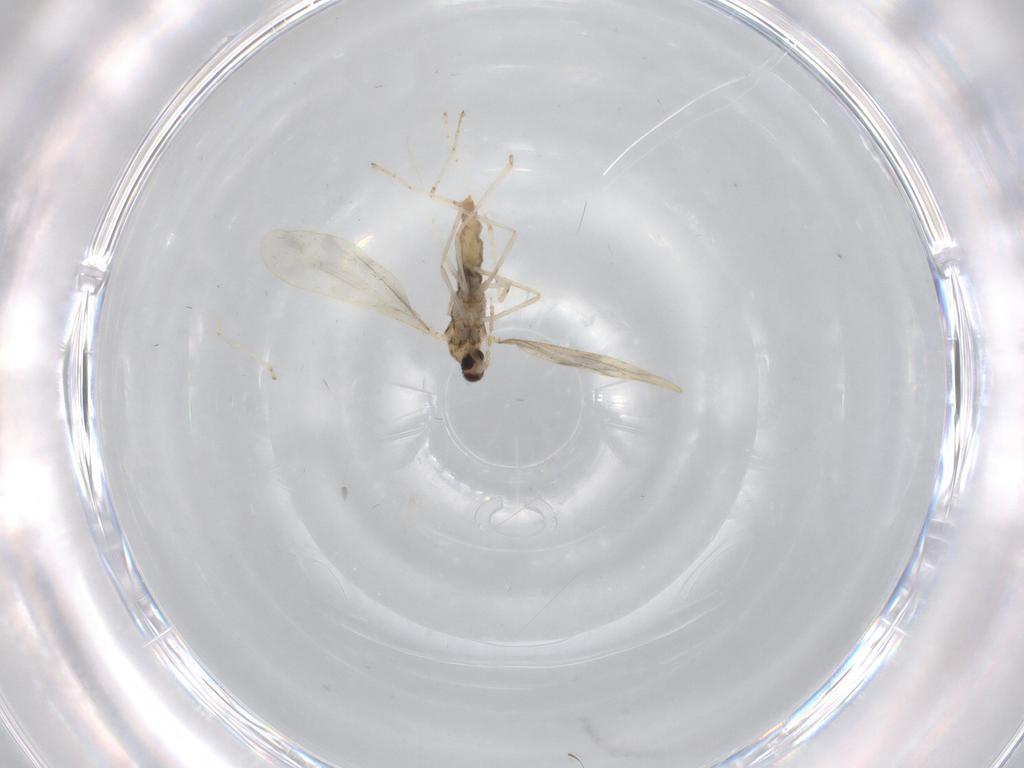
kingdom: Animalia
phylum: Arthropoda
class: Insecta
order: Diptera
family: Cecidomyiidae
